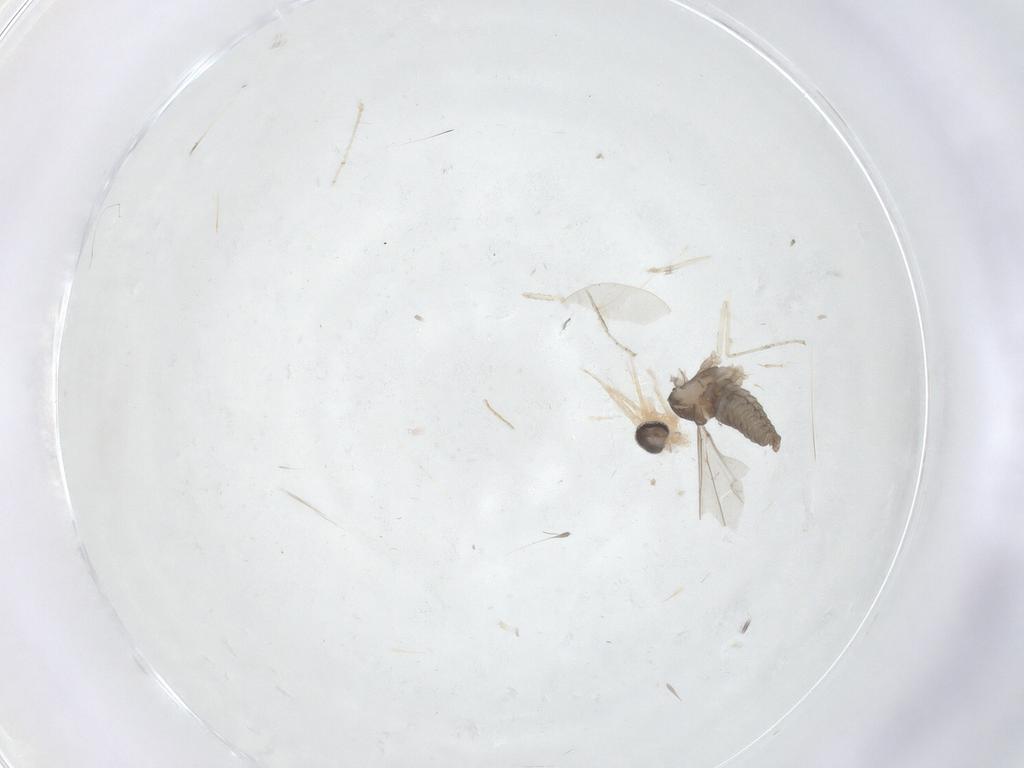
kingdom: Animalia
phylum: Arthropoda
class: Insecta
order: Diptera
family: Cecidomyiidae
